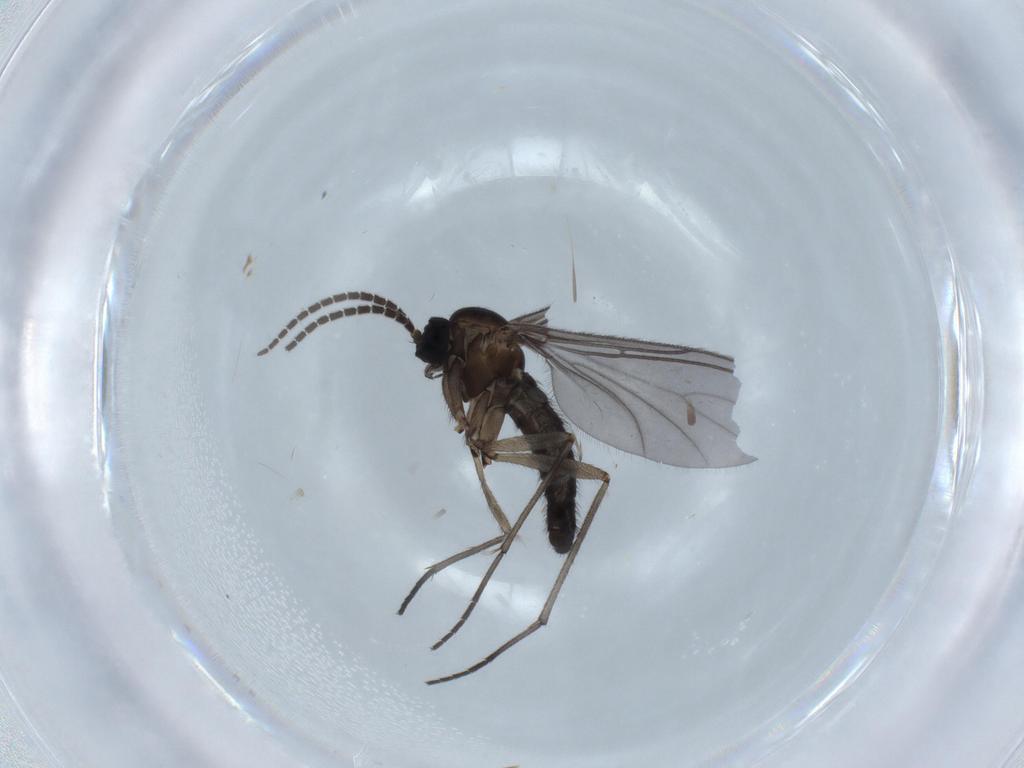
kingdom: Animalia
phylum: Arthropoda
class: Insecta
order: Diptera
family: Sciaridae
